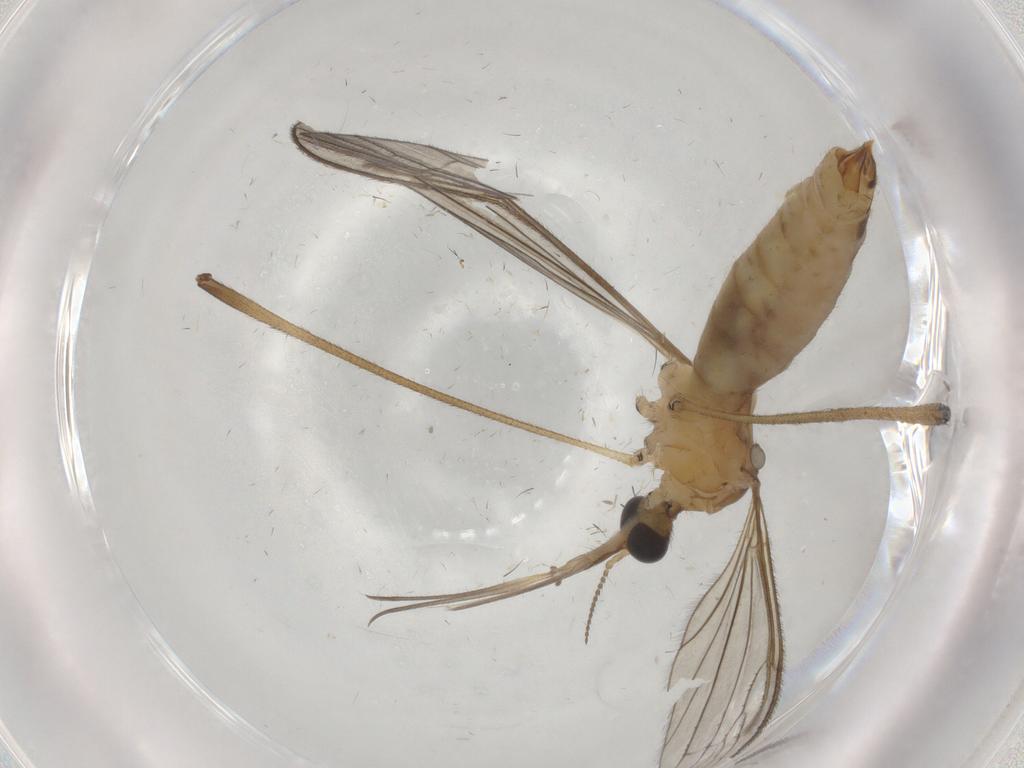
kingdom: Animalia
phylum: Arthropoda
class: Insecta
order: Diptera
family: Limoniidae
